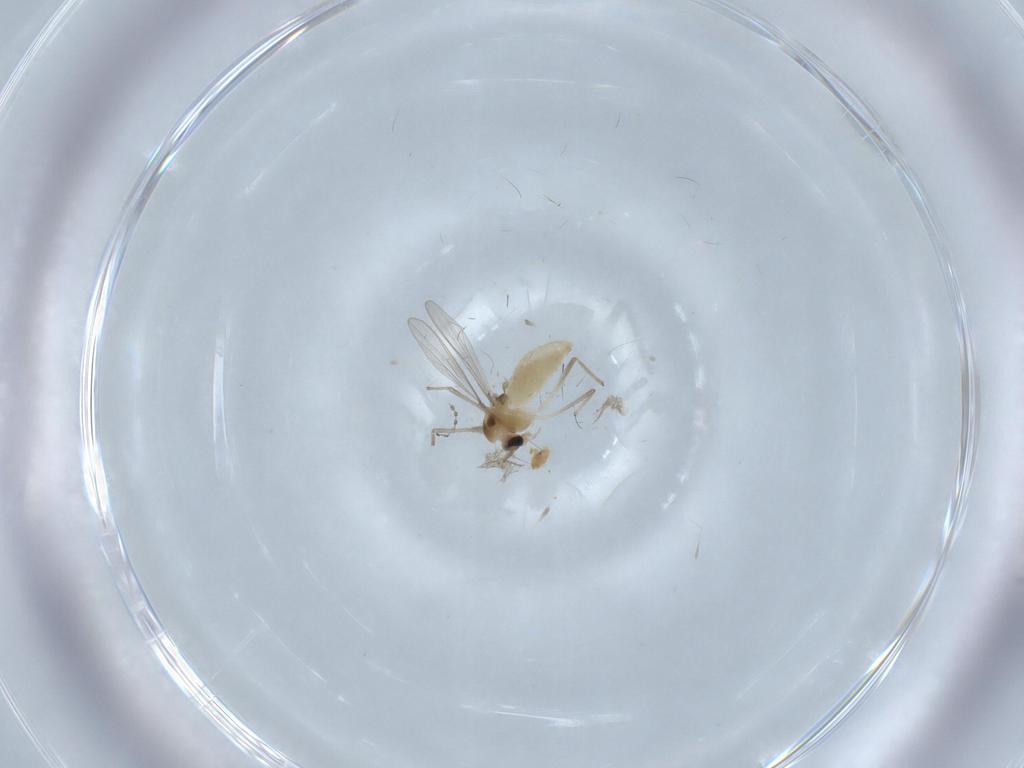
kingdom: Animalia
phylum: Arthropoda
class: Insecta
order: Diptera
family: Chironomidae
